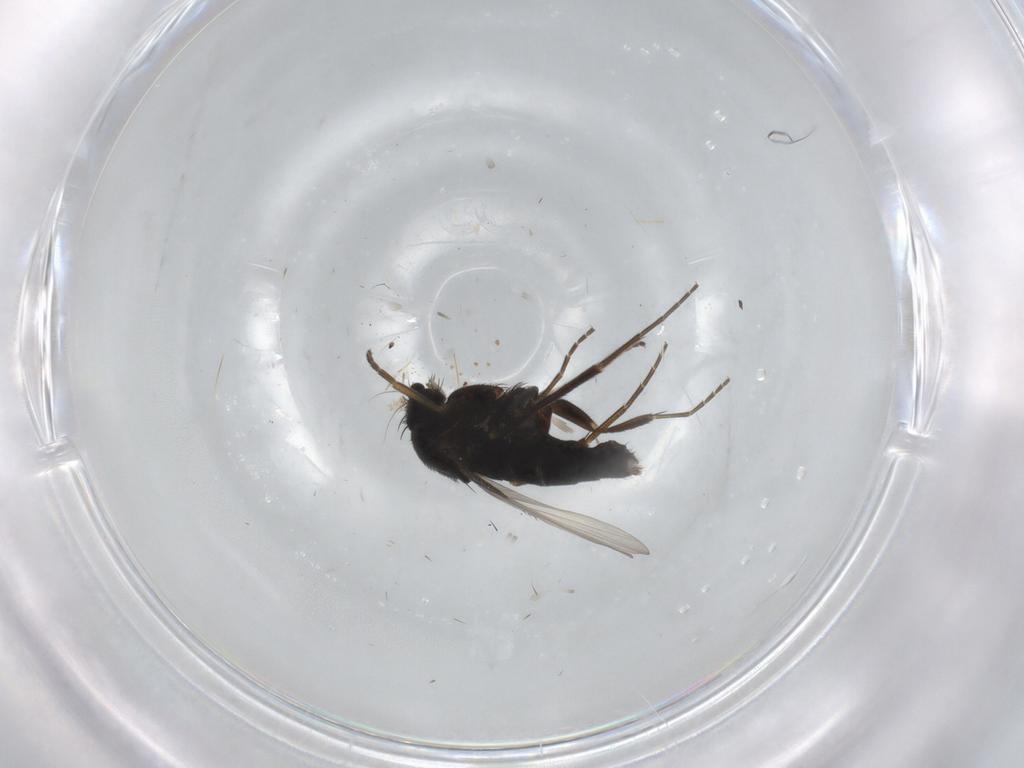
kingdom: Animalia
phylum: Arthropoda
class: Insecta
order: Diptera
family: Phoridae
